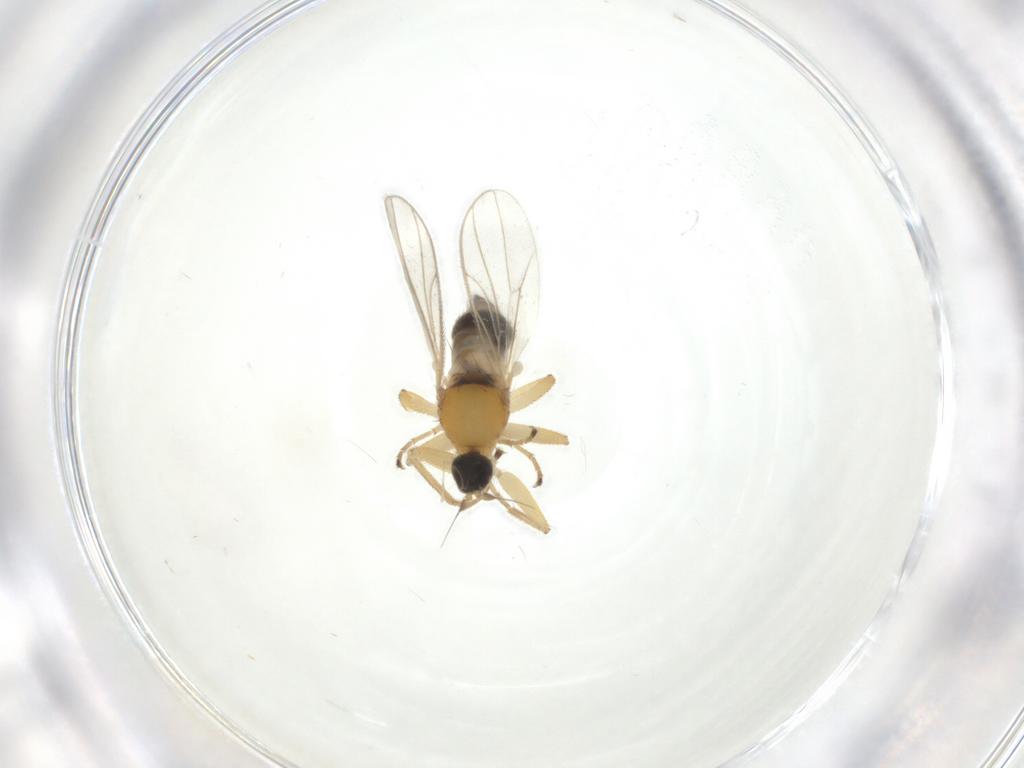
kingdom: Animalia
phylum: Arthropoda
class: Insecta
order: Diptera
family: Hybotidae
